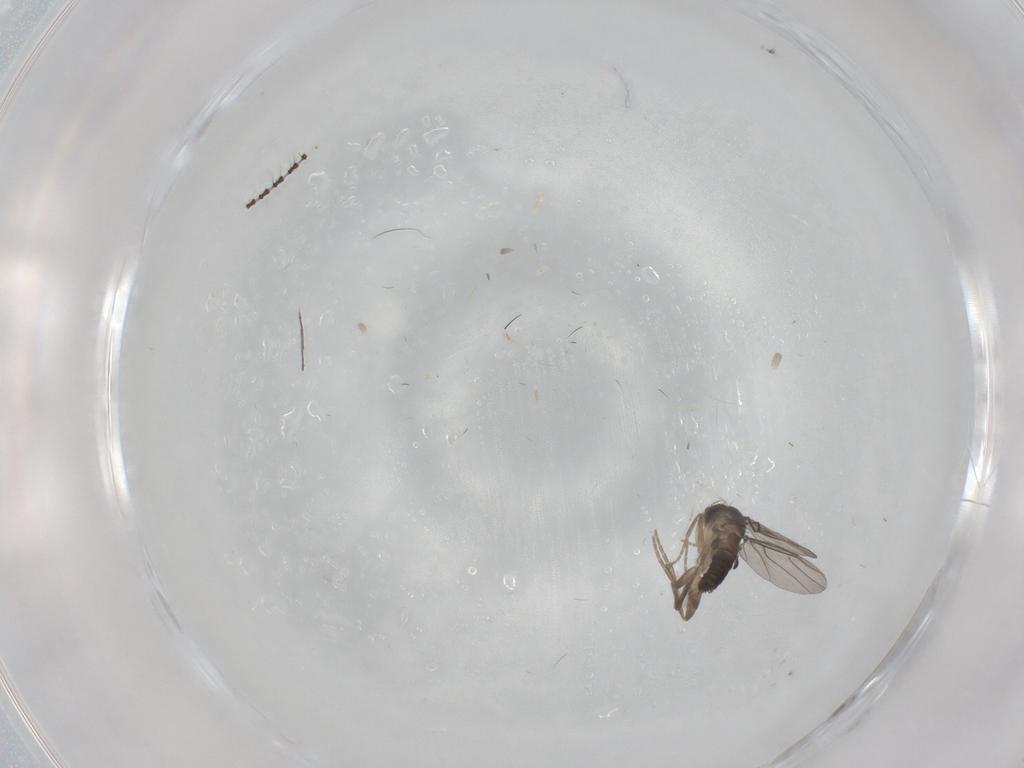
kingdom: Animalia
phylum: Arthropoda
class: Insecta
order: Diptera
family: Sciaridae
